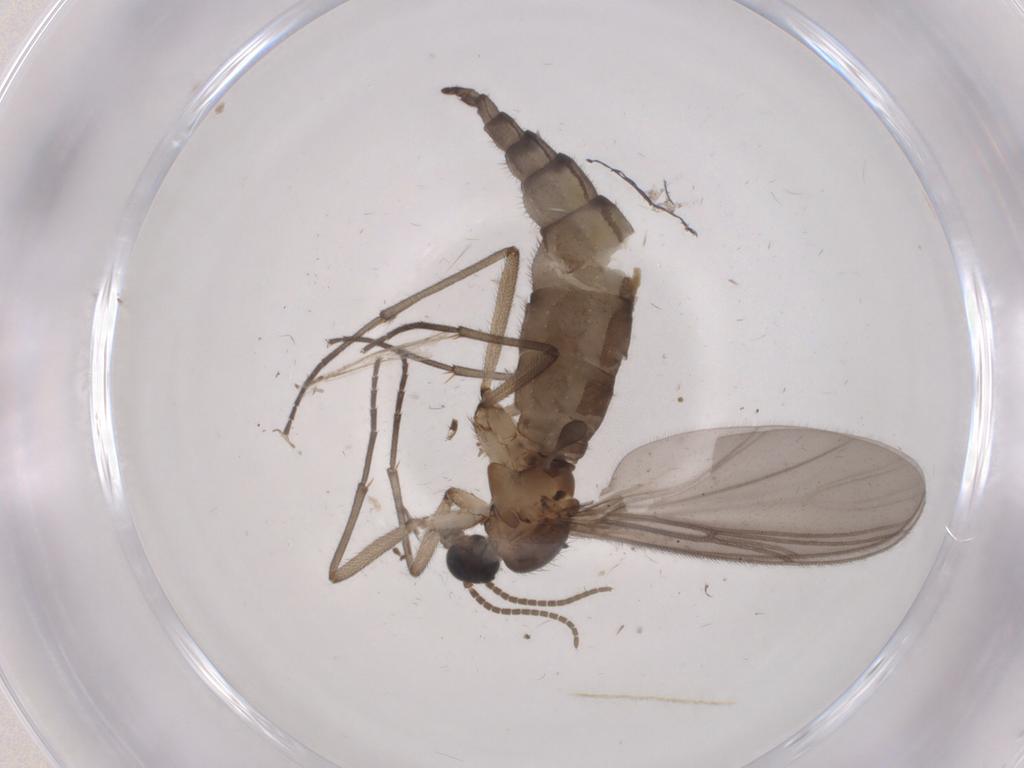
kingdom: Animalia
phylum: Arthropoda
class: Insecta
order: Diptera
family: Chironomidae
